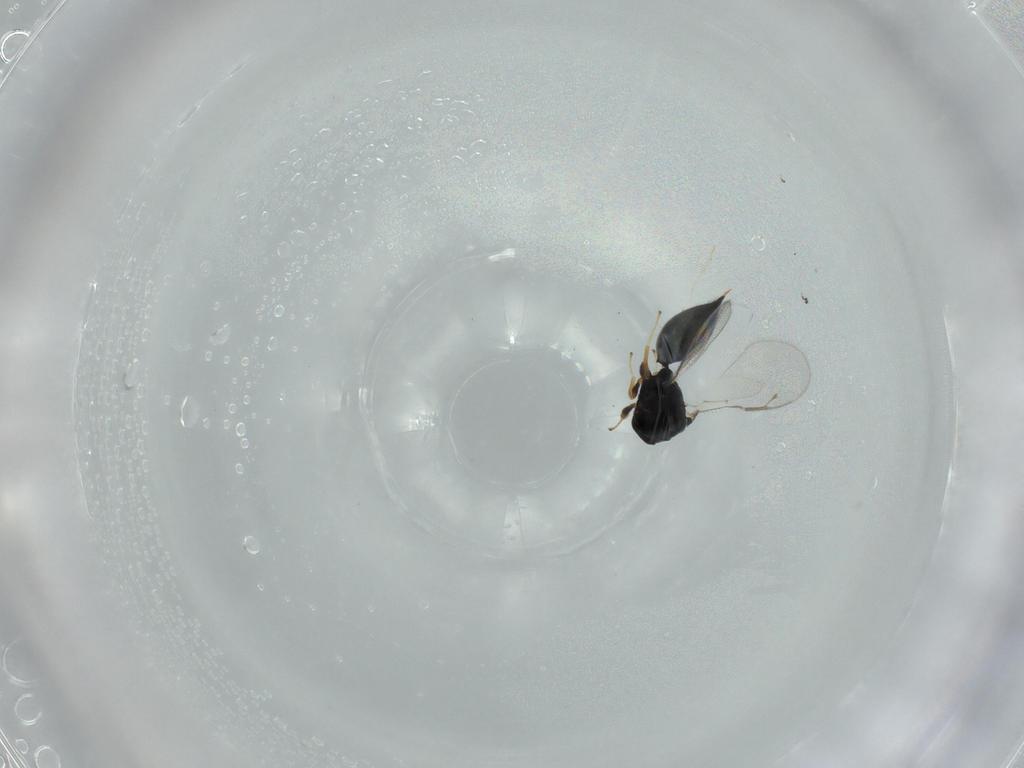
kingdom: Animalia
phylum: Arthropoda
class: Insecta
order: Hymenoptera
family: Pteromalidae
